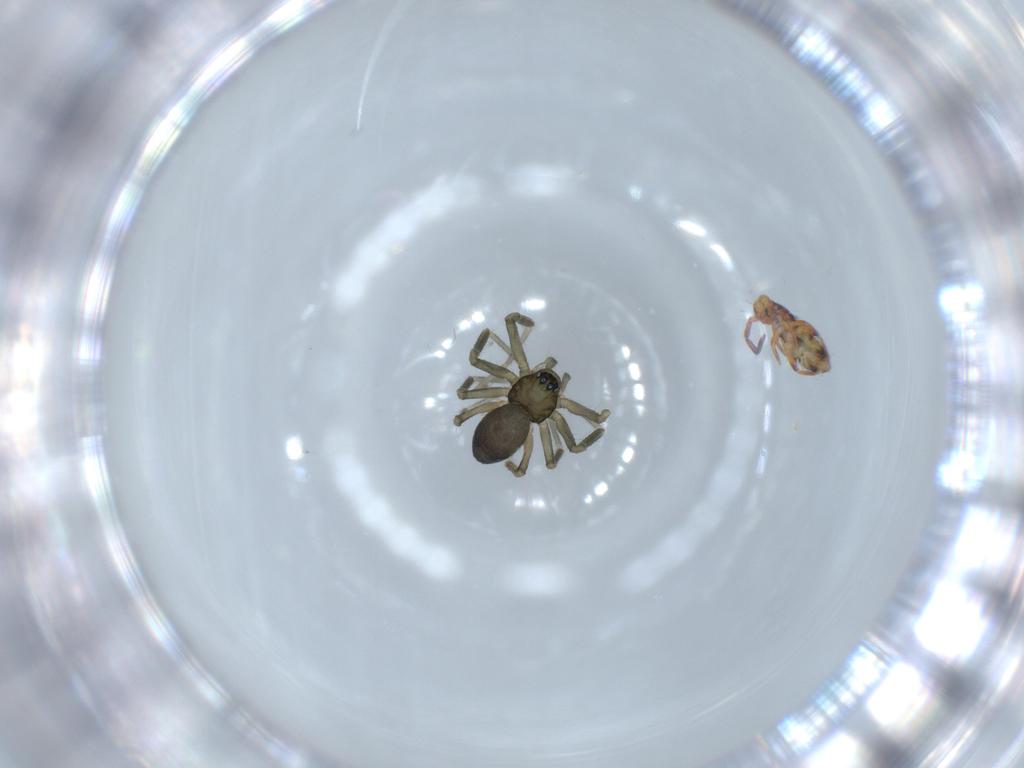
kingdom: Animalia
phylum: Arthropoda
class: Arachnida
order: Araneae
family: Linyphiidae
